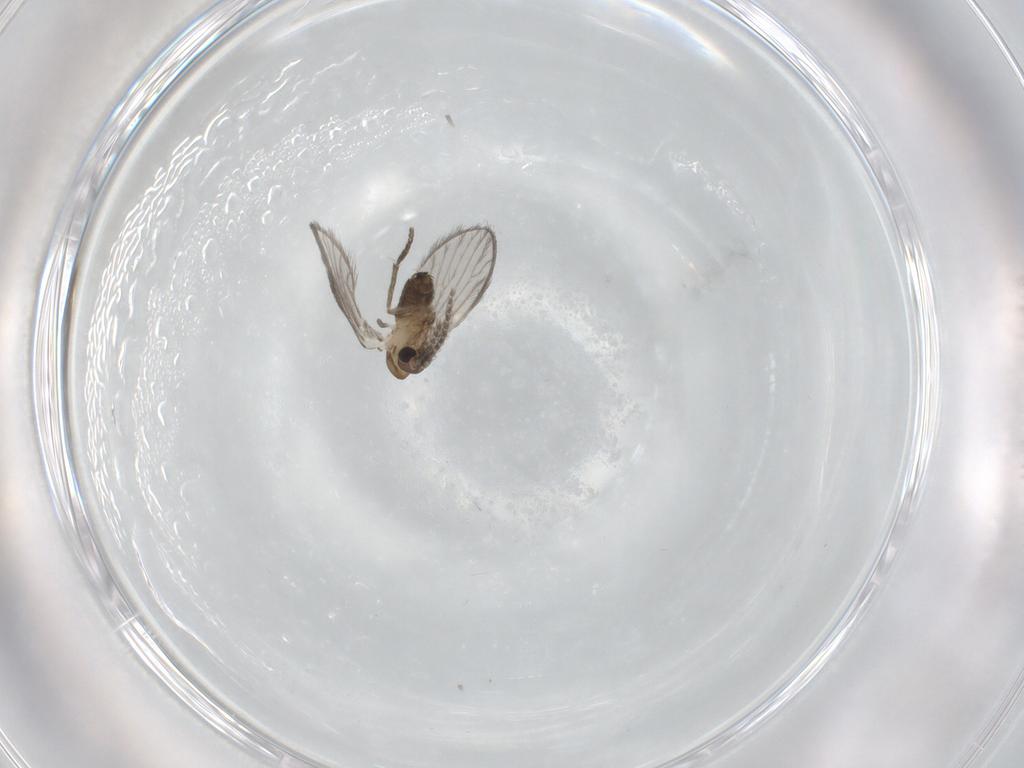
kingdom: Animalia
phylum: Arthropoda
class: Insecta
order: Diptera
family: Psychodidae
